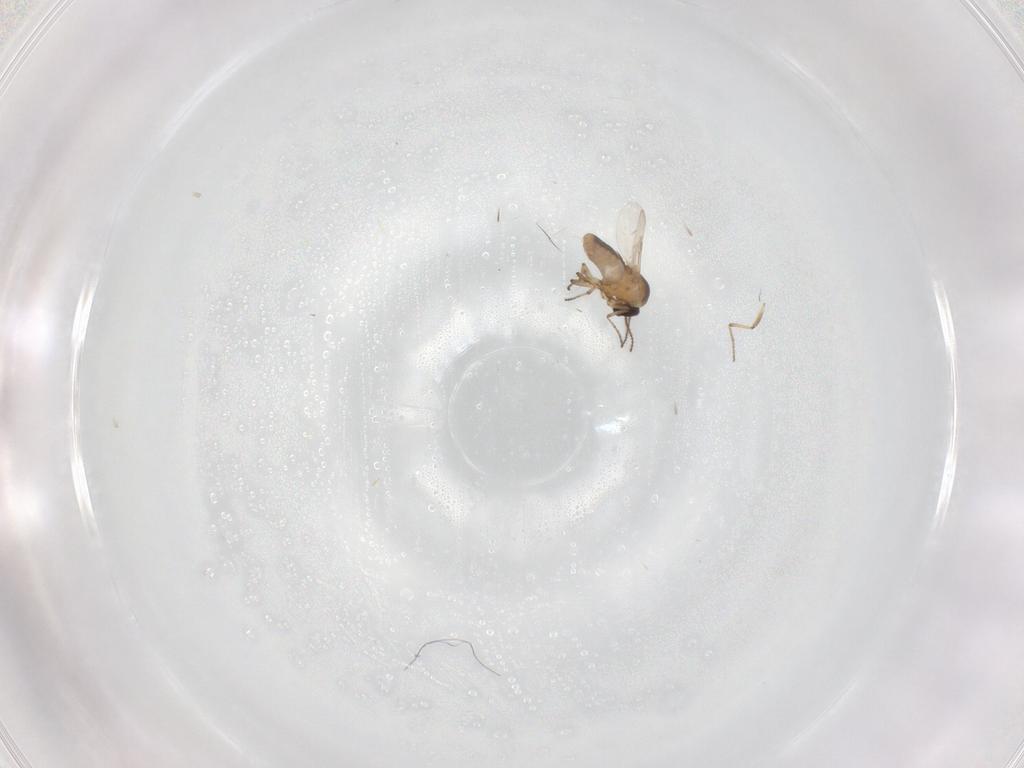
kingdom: Animalia
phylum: Arthropoda
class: Insecta
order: Diptera
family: Ceratopogonidae
